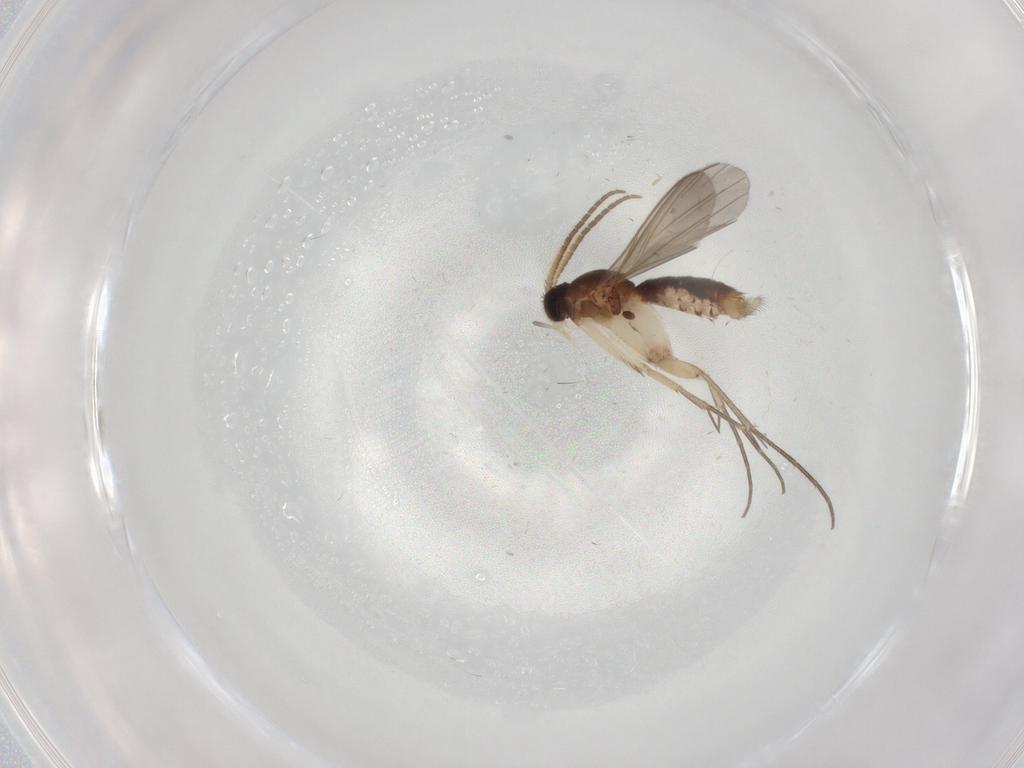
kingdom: Animalia
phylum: Arthropoda
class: Insecta
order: Diptera
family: Mycetophilidae
